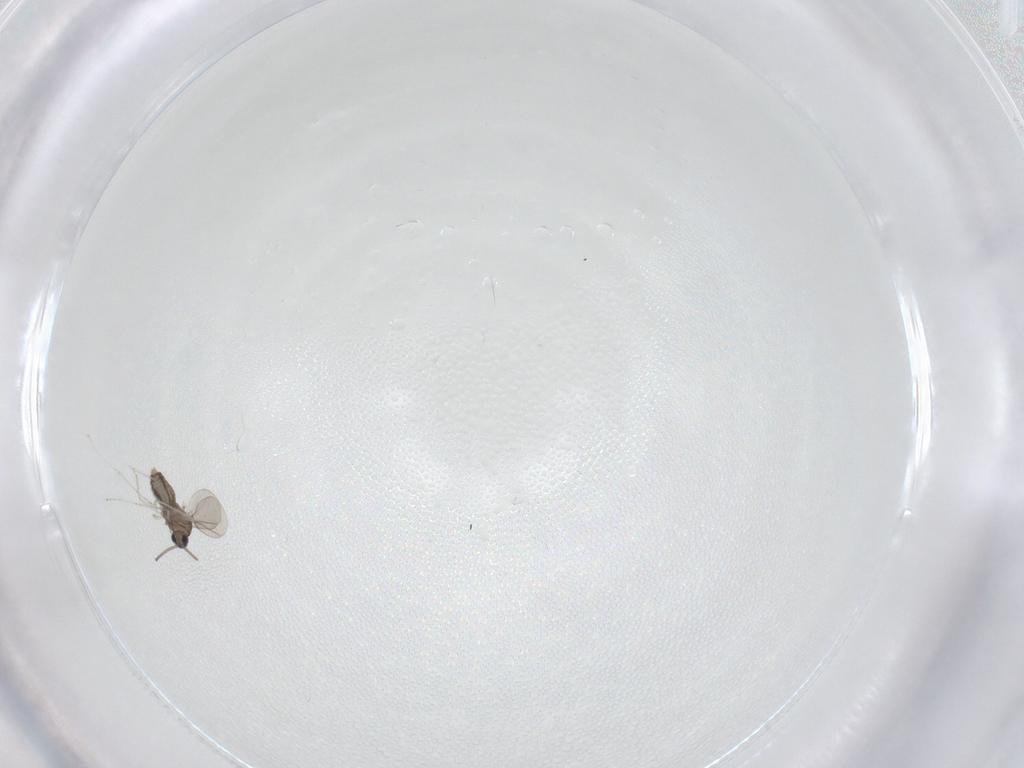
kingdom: Animalia
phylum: Arthropoda
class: Insecta
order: Diptera
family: Cecidomyiidae
